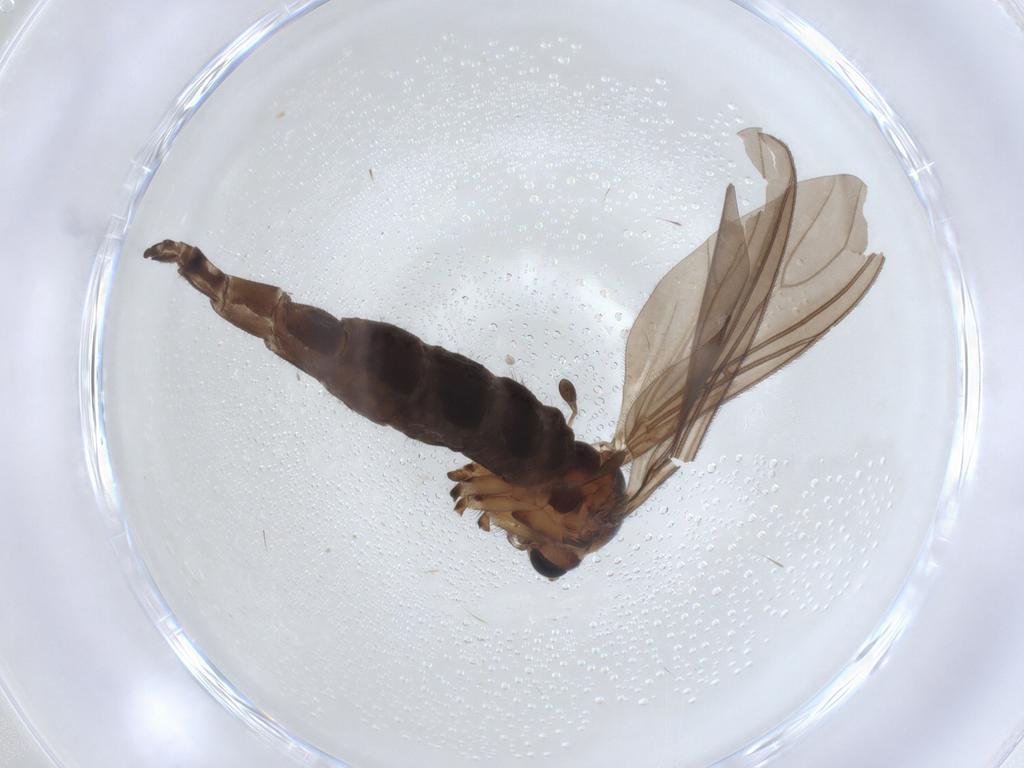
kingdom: Animalia
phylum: Arthropoda
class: Insecta
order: Diptera
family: Sciaridae
